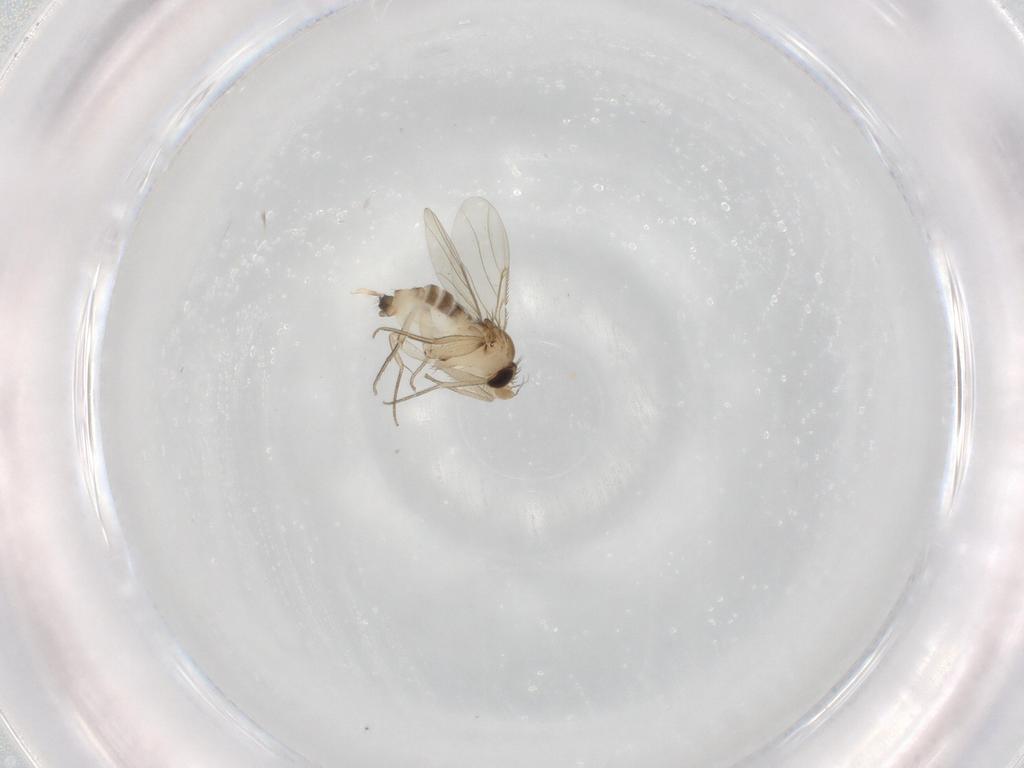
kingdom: Animalia
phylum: Arthropoda
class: Insecta
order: Diptera
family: Phoridae
